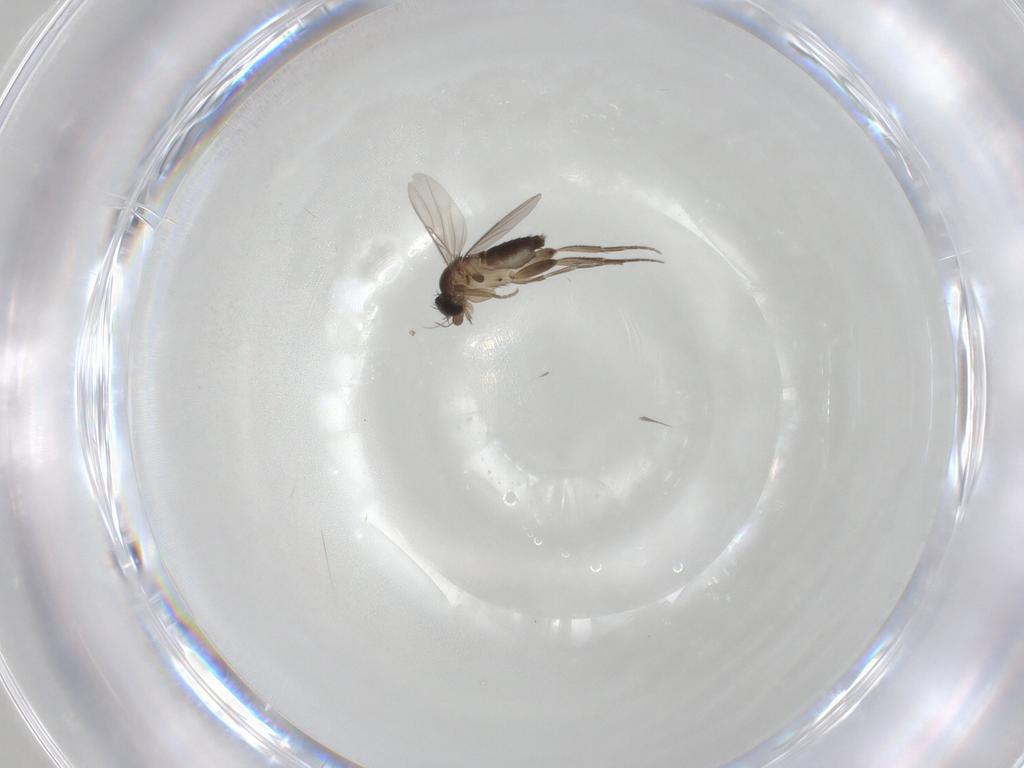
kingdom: Animalia
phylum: Arthropoda
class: Insecta
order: Diptera
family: Phoridae
